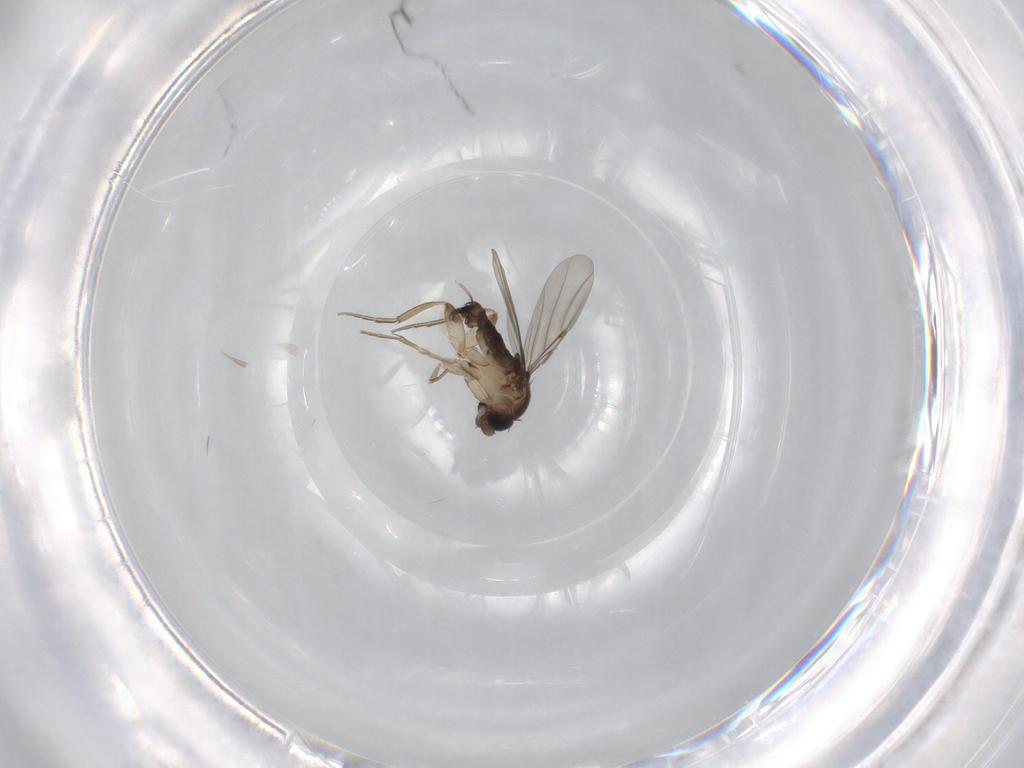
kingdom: Animalia
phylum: Arthropoda
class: Insecta
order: Diptera
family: Phoridae
